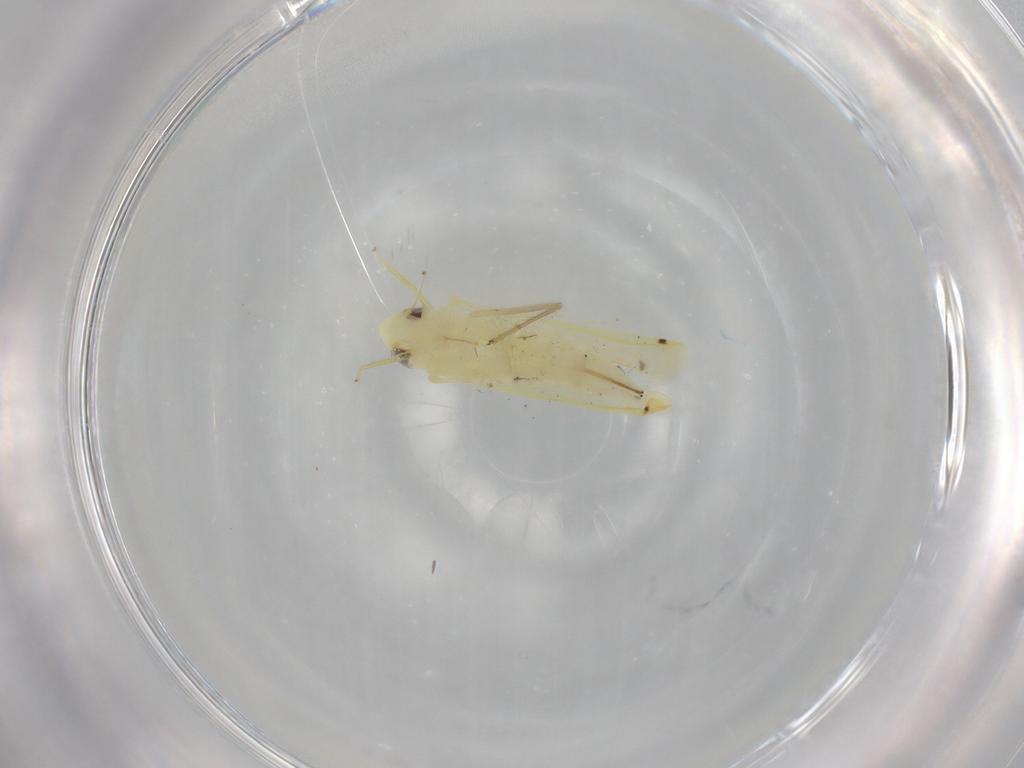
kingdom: Animalia
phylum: Arthropoda
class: Insecta
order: Hemiptera
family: Cicadellidae
